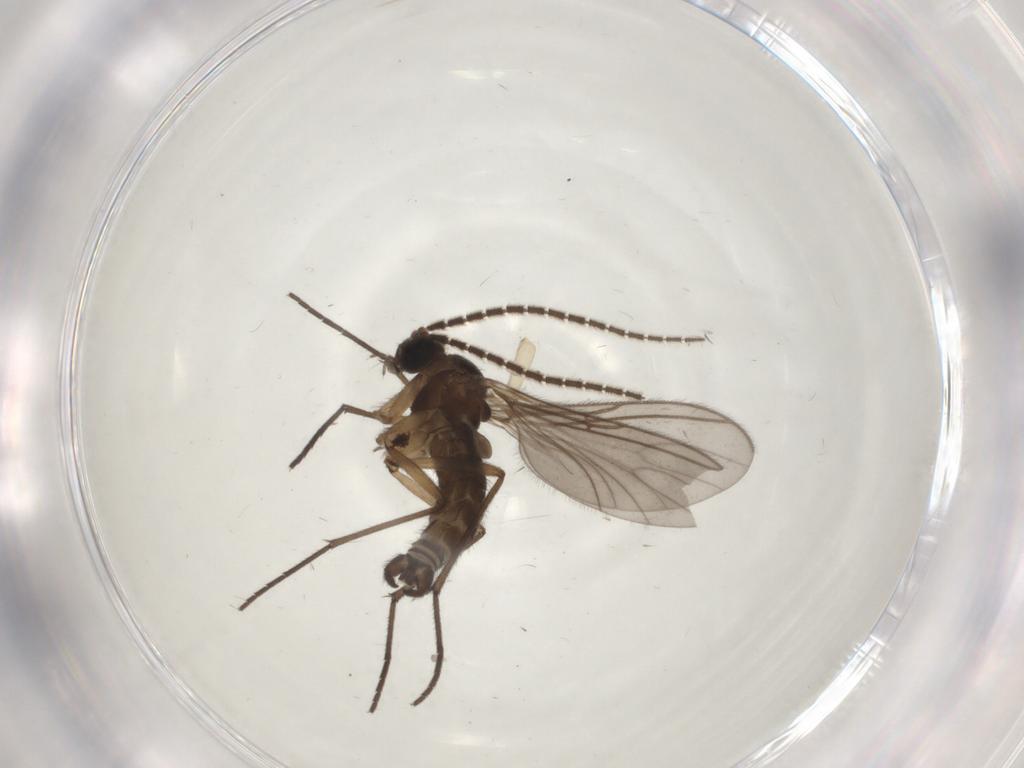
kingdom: Animalia
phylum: Arthropoda
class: Insecta
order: Diptera
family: Sciaridae
